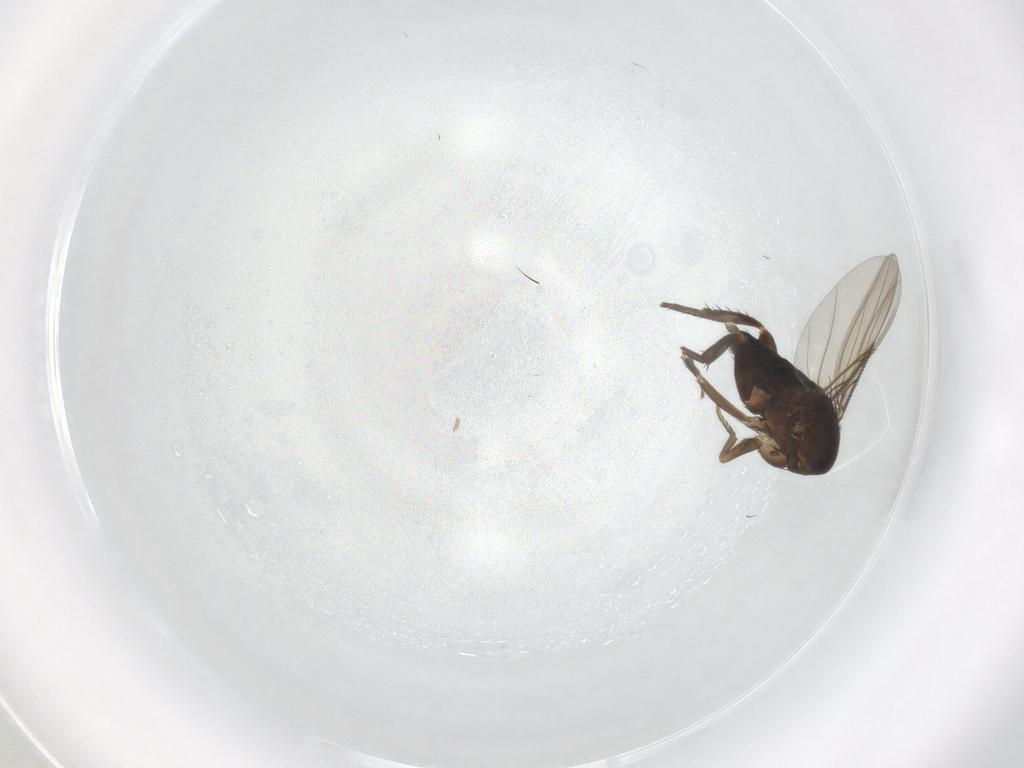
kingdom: Animalia
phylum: Arthropoda
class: Insecta
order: Diptera
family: Phoridae
